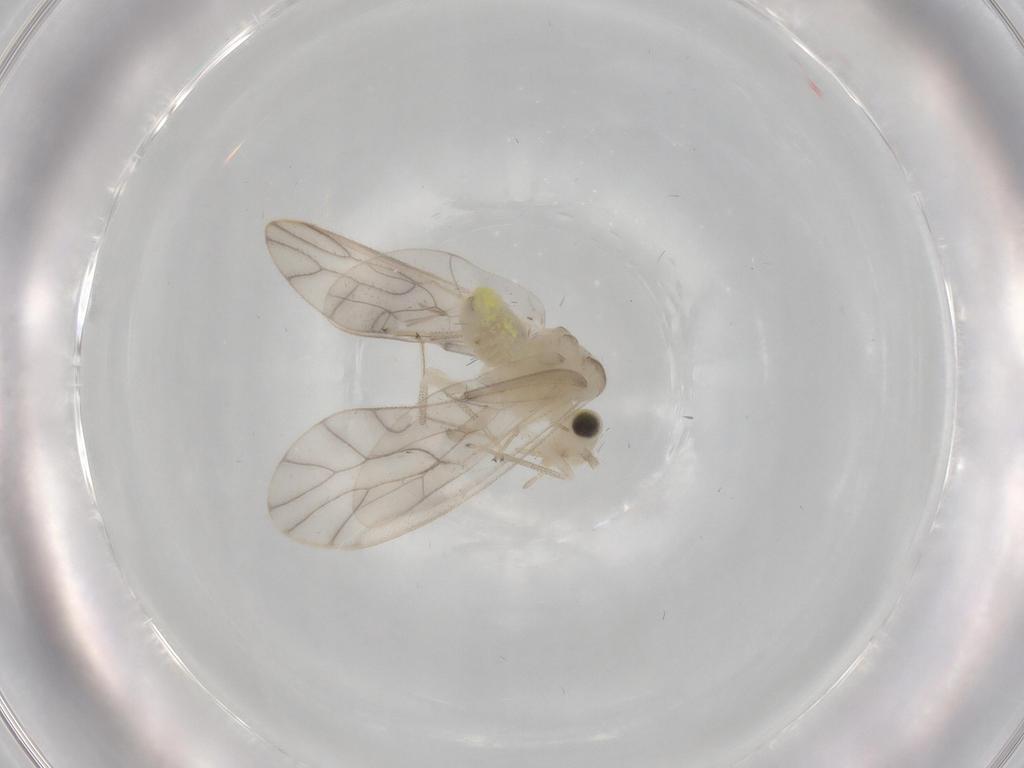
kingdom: Animalia
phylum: Arthropoda
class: Insecta
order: Psocodea
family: Caeciliusidae
